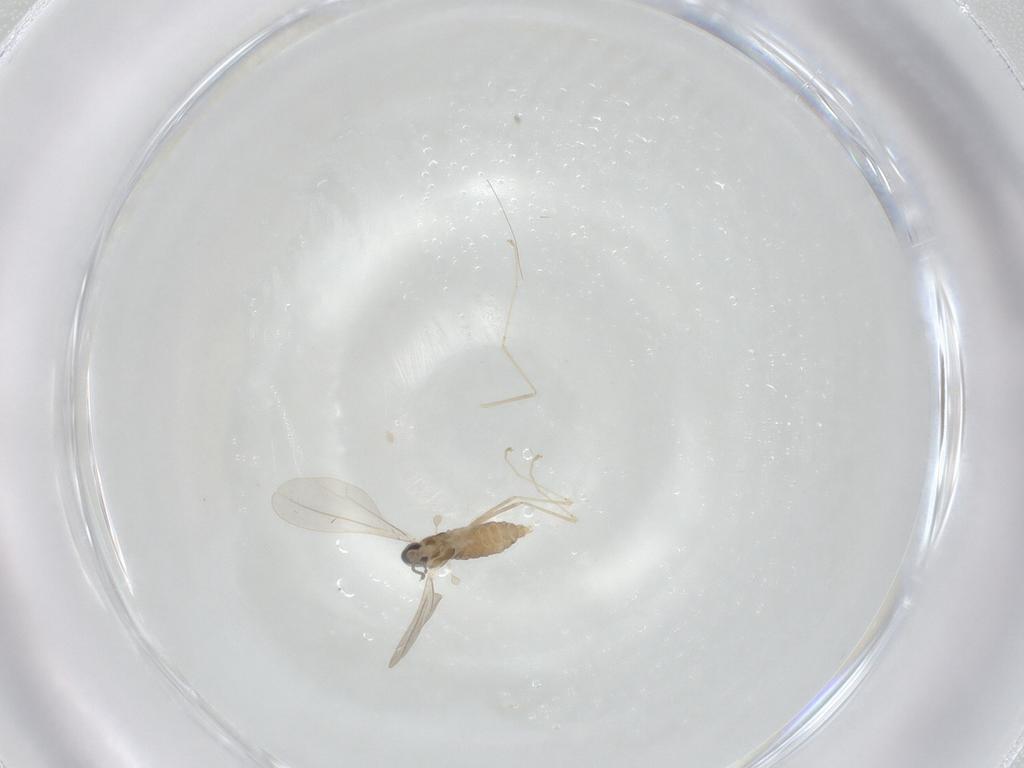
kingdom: Animalia
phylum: Arthropoda
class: Insecta
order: Diptera
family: Cecidomyiidae
